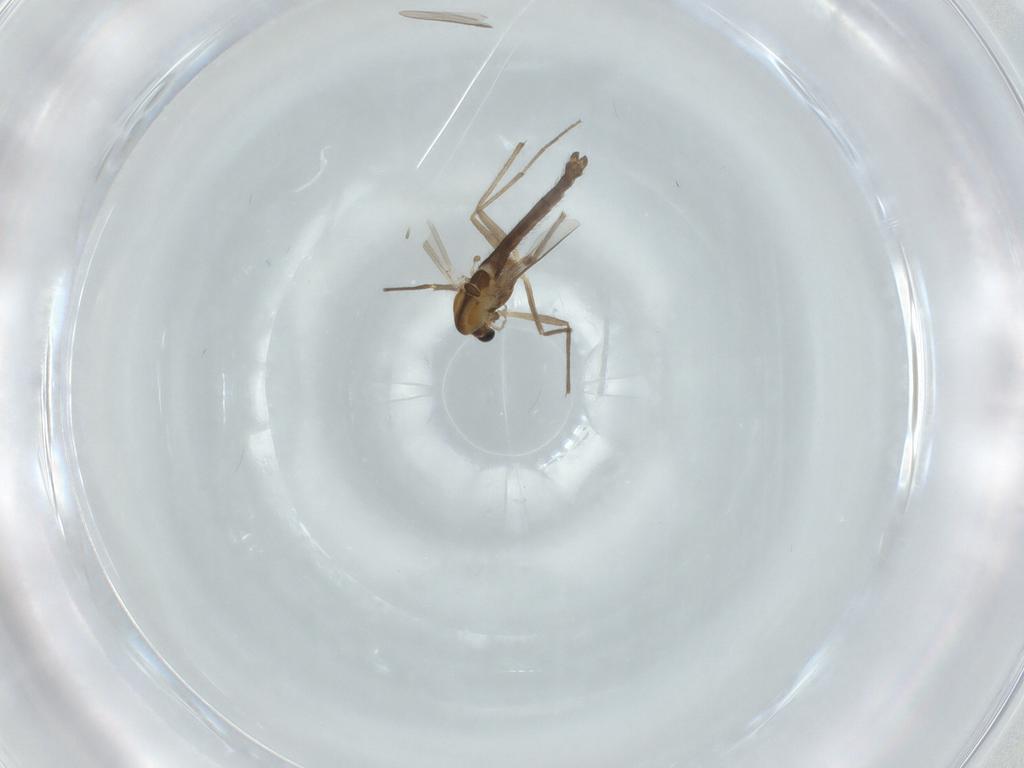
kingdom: Animalia
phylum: Arthropoda
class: Insecta
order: Diptera
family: Chironomidae
